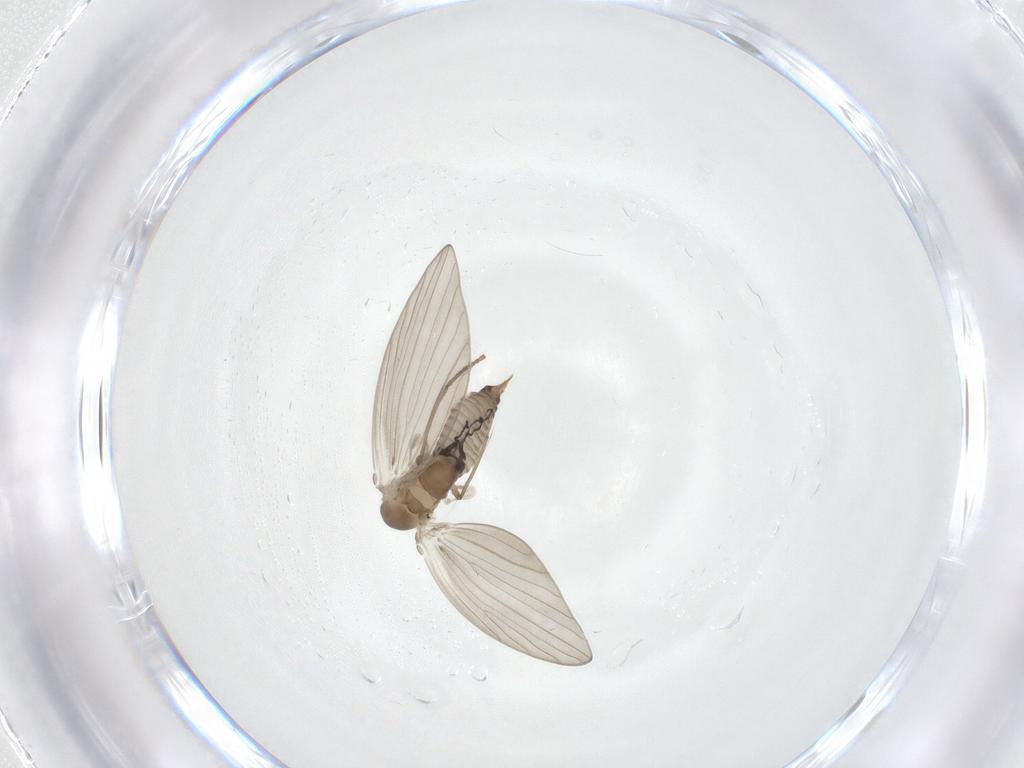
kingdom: Animalia
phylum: Arthropoda
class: Insecta
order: Diptera
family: Psychodidae
